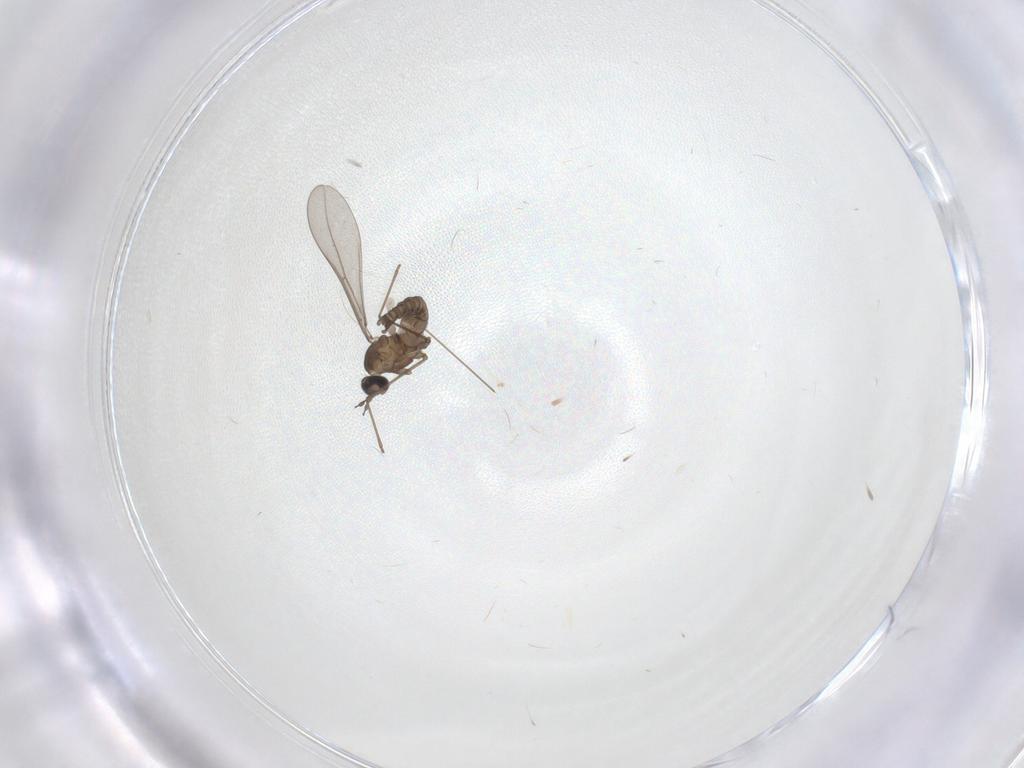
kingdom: Animalia
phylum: Arthropoda
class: Insecta
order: Diptera
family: Cecidomyiidae
